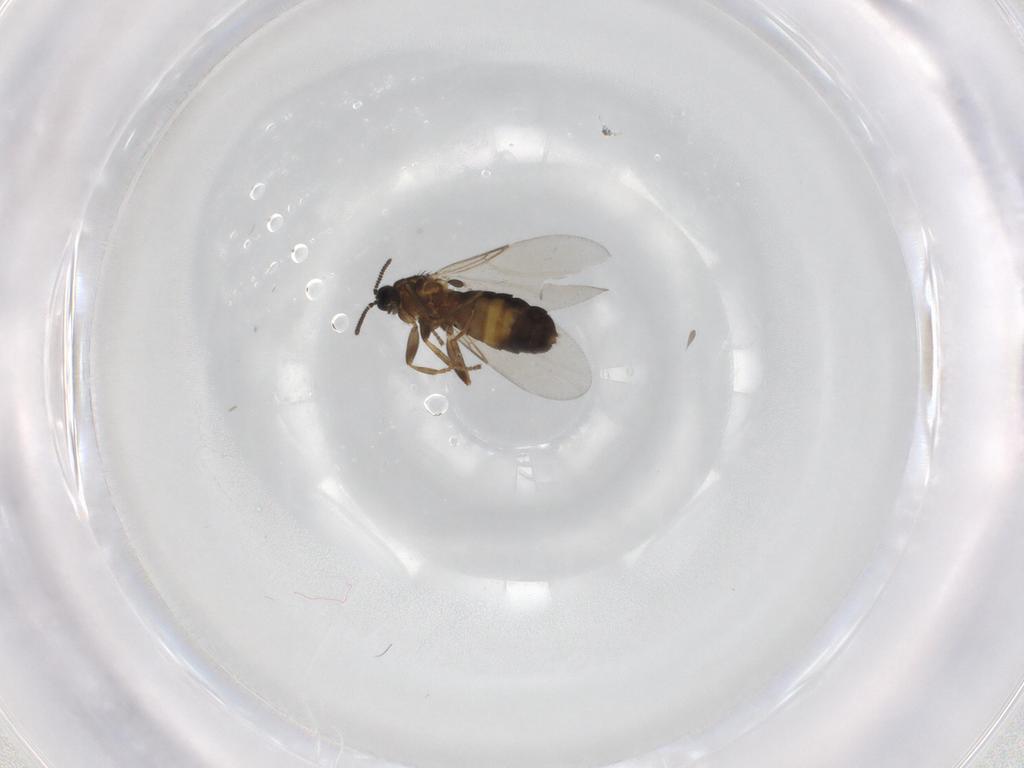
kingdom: Animalia
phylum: Arthropoda
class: Insecta
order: Diptera
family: Scatopsidae
